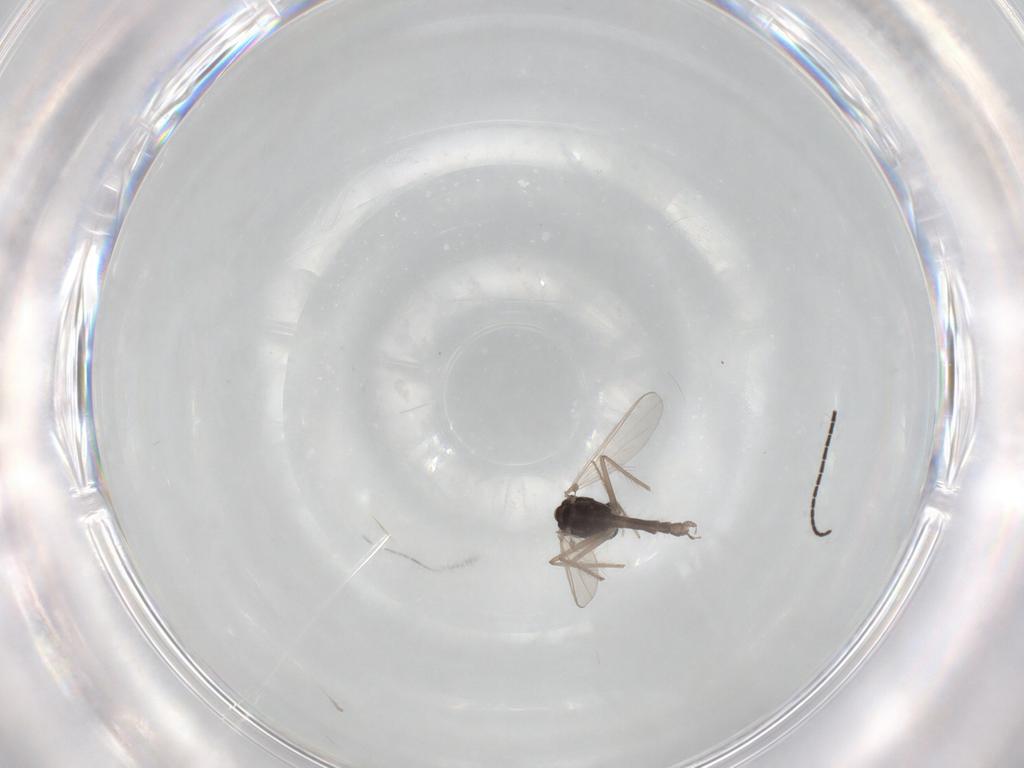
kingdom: Animalia
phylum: Arthropoda
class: Insecta
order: Diptera
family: Chironomidae
